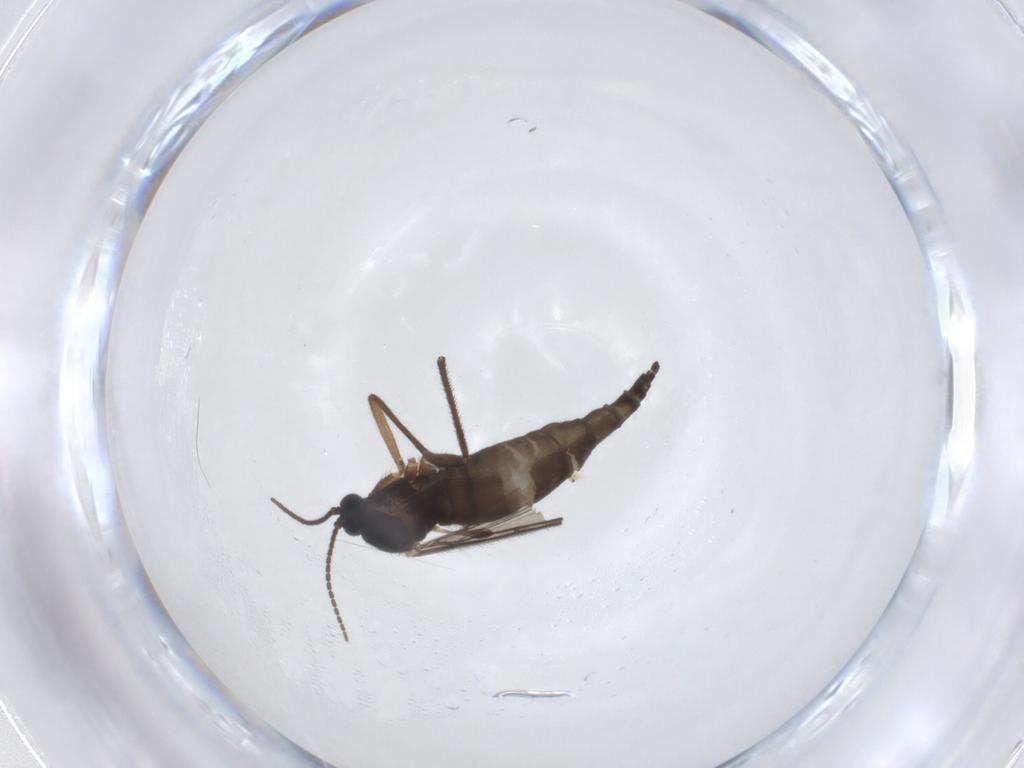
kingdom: Animalia
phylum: Arthropoda
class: Insecta
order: Diptera
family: Sciaridae
